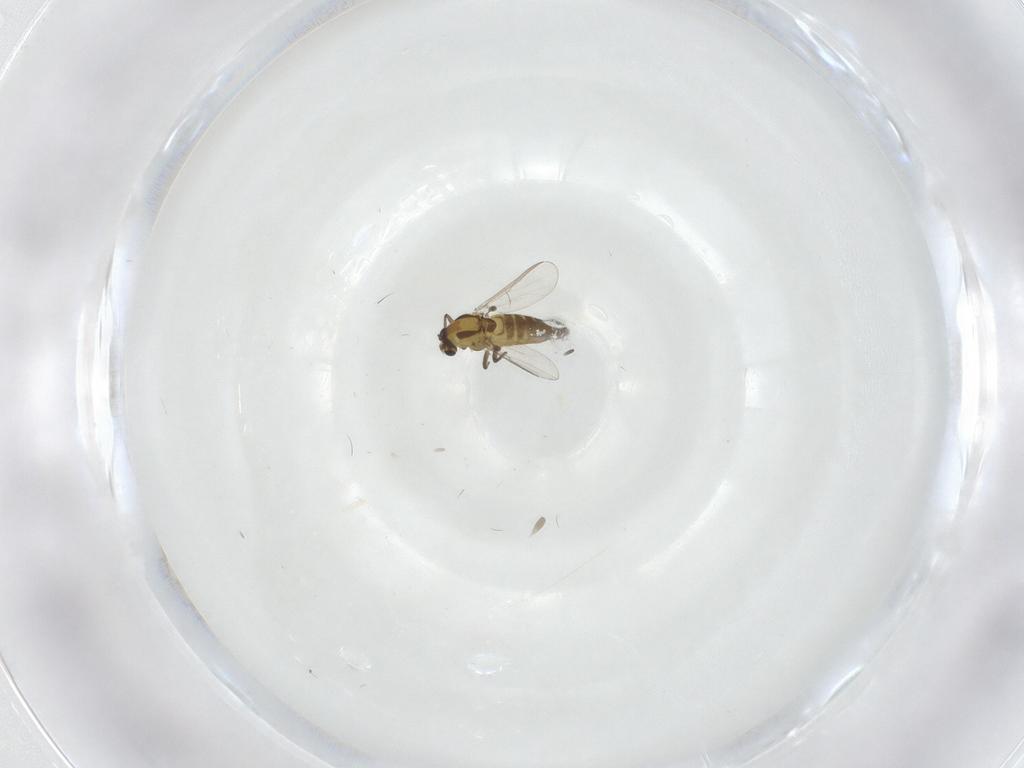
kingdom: Animalia
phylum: Arthropoda
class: Insecta
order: Diptera
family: Chironomidae
